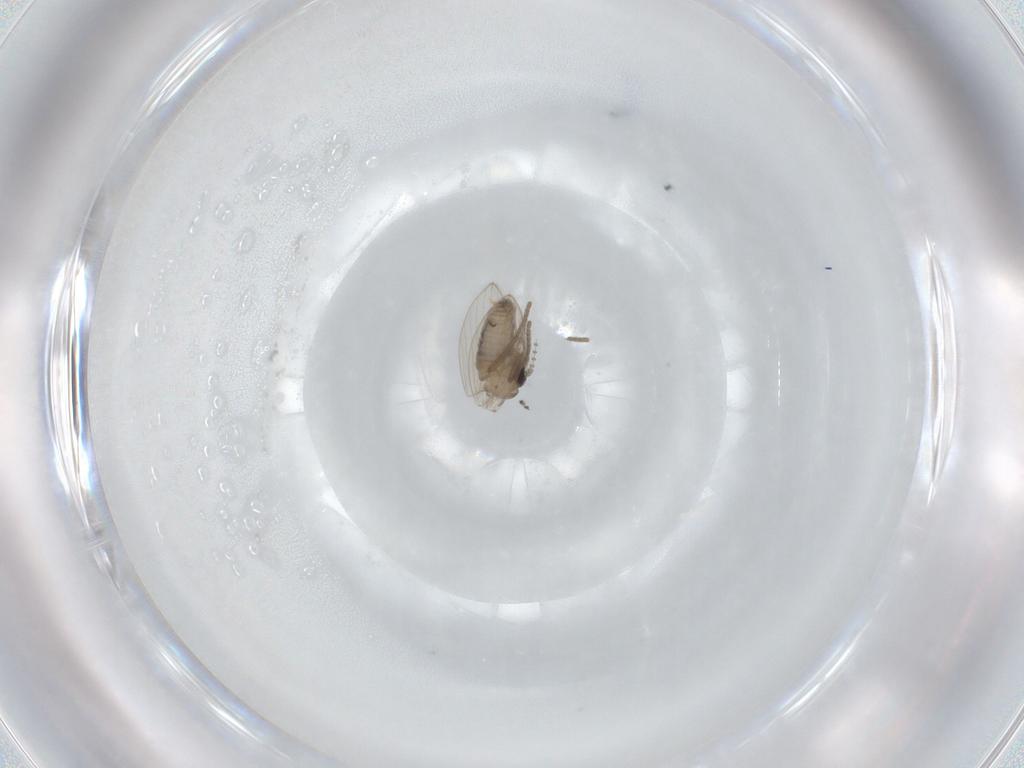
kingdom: Animalia
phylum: Arthropoda
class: Insecta
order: Diptera
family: Psychodidae
